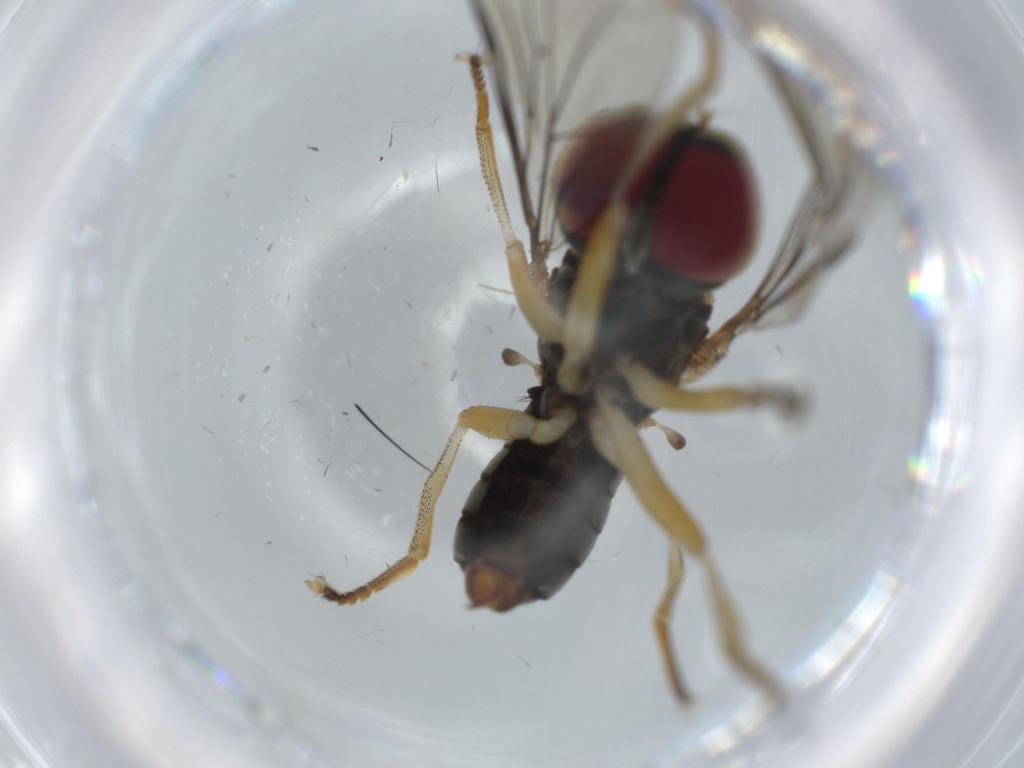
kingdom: Animalia
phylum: Arthropoda
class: Insecta
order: Diptera
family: Pipunculidae
